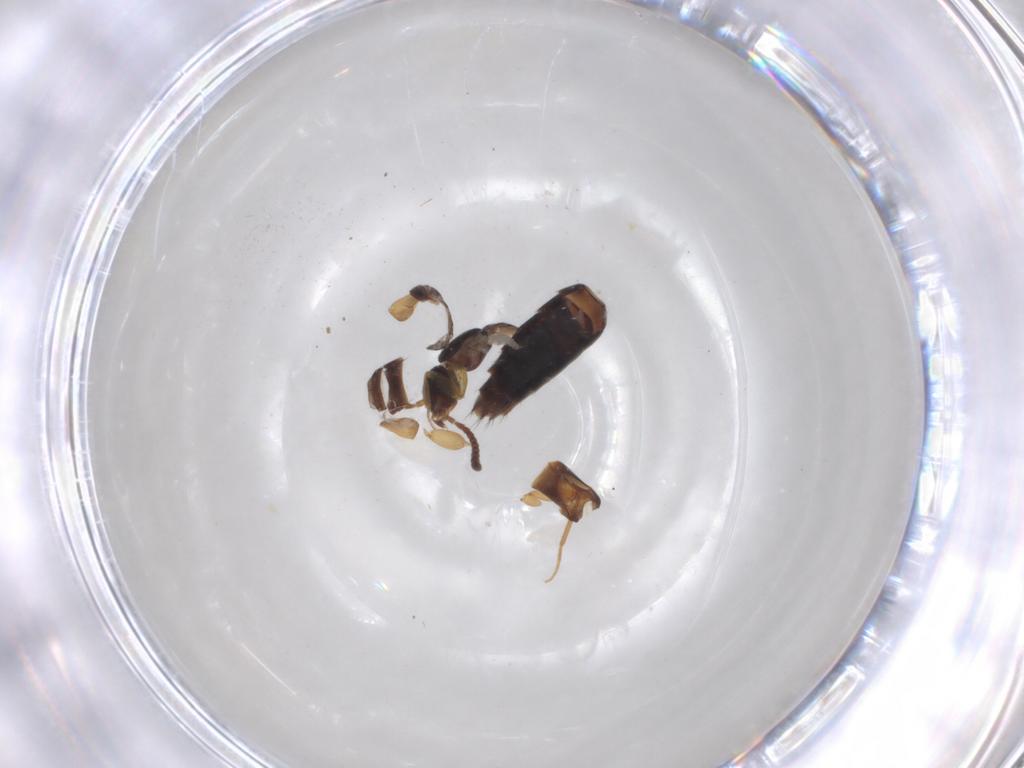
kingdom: Animalia
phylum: Arthropoda
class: Insecta
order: Coleoptera
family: Staphylinidae
